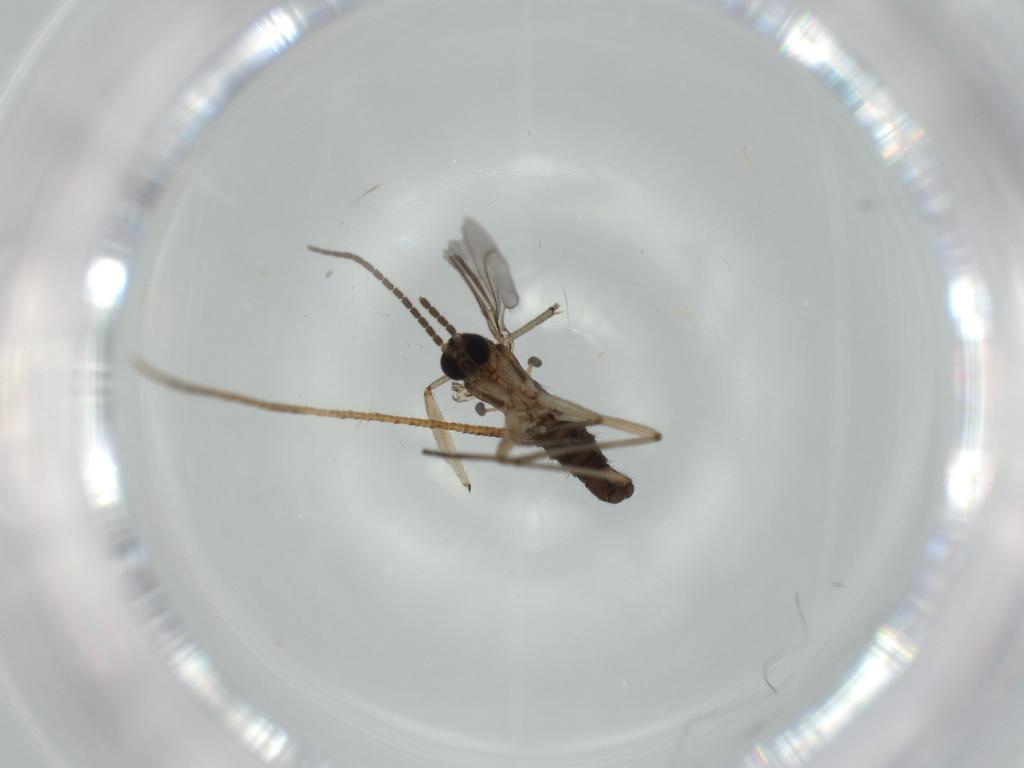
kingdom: Animalia
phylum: Arthropoda
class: Insecta
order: Diptera
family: Sciaridae
